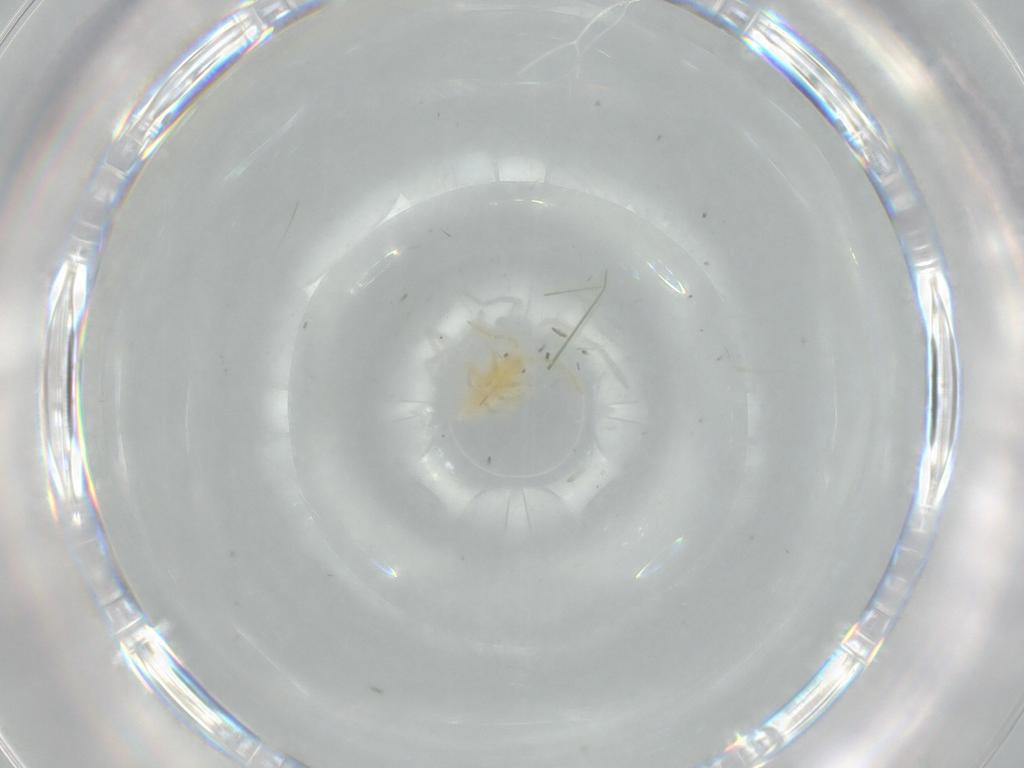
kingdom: Animalia
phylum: Arthropoda
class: Insecta
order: Hemiptera
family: Miridae
